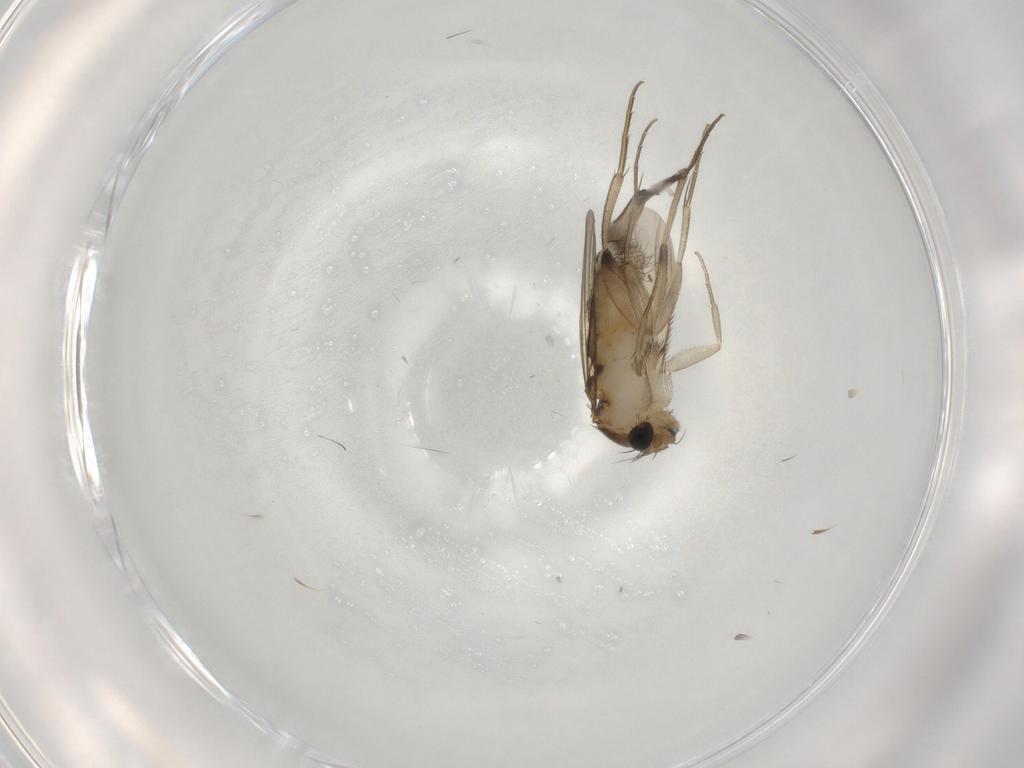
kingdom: Animalia
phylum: Arthropoda
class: Insecta
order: Diptera
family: Phoridae
